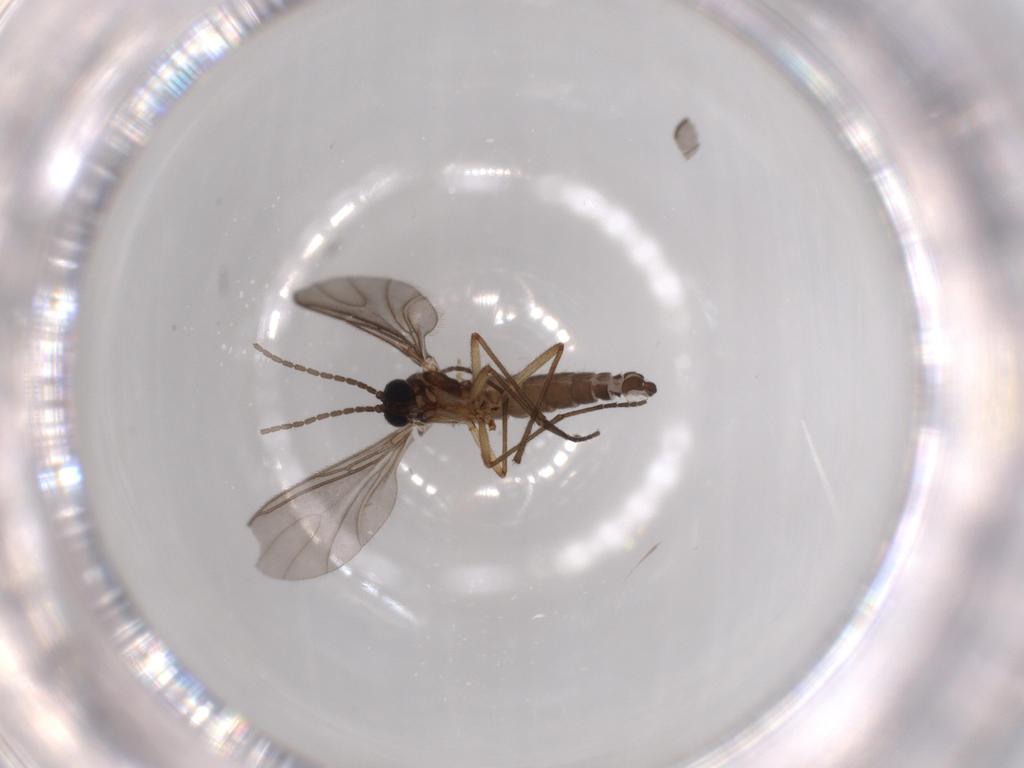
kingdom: Animalia
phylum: Arthropoda
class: Insecta
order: Diptera
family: Sciaridae
